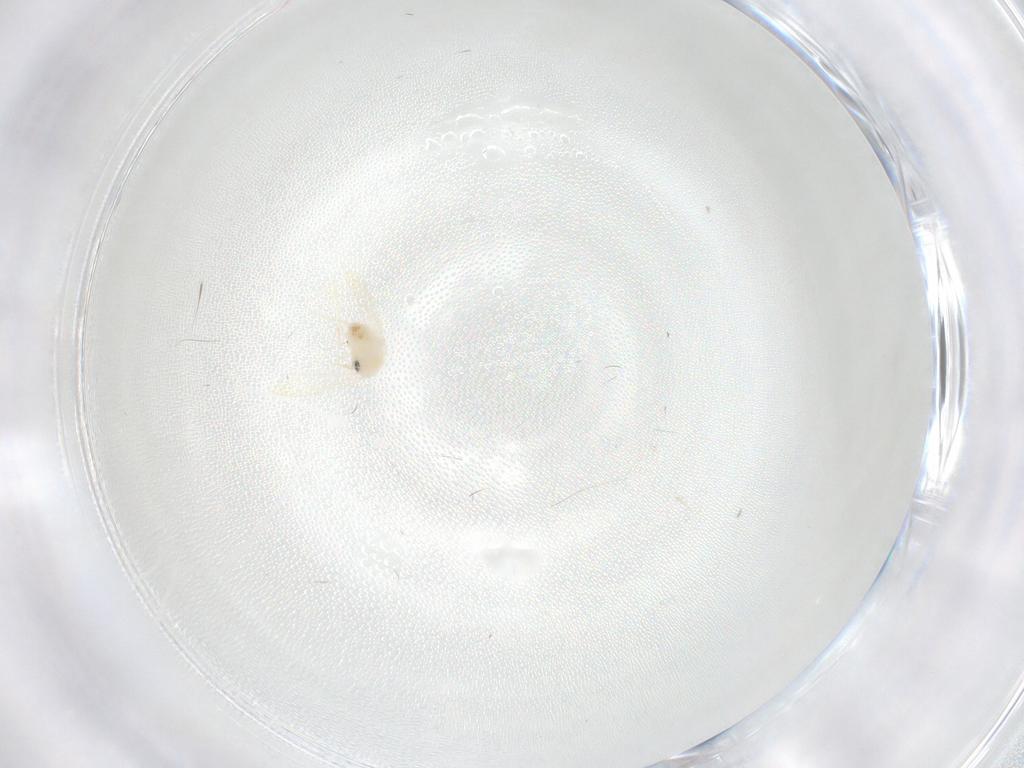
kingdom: Animalia
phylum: Arthropoda
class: Insecta
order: Hemiptera
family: Aleyrodidae
